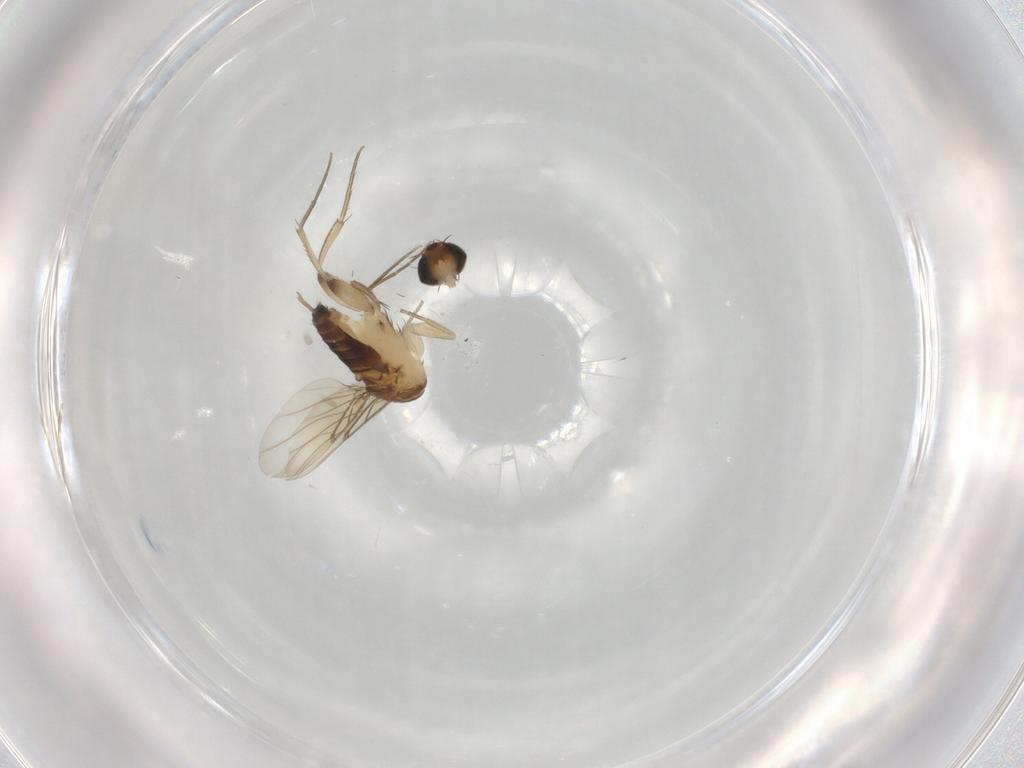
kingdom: Animalia
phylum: Arthropoda
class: Insecta
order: Diptera
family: Phoridae
